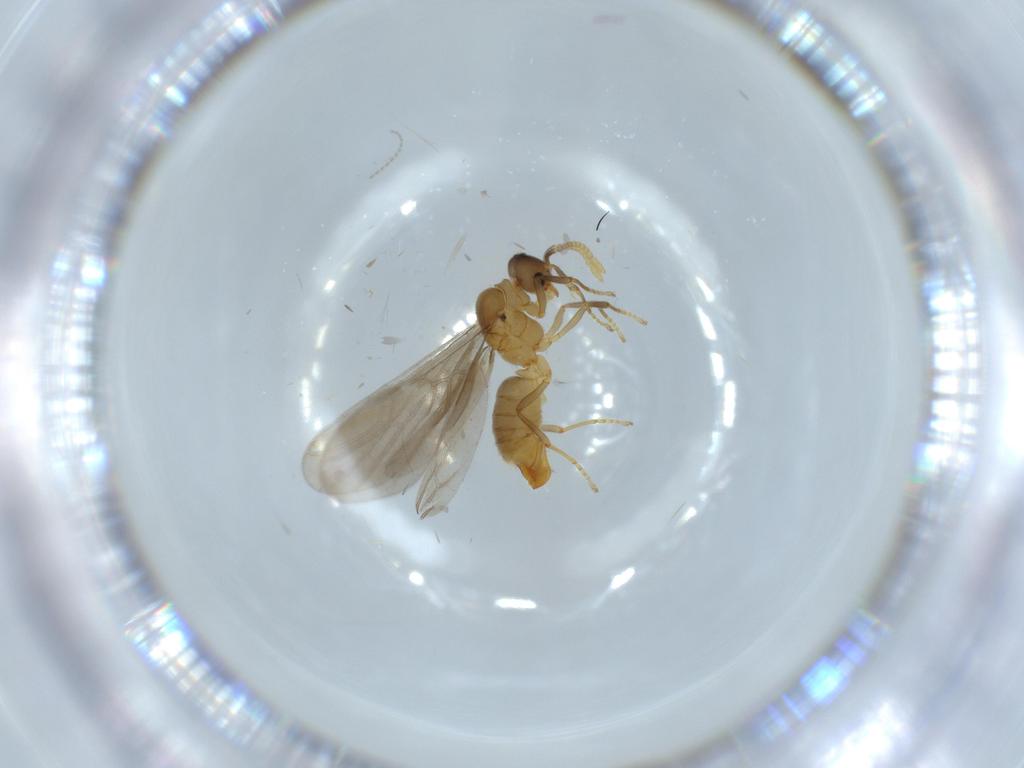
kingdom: Animalia
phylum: Arthropoda
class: Insecta
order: Hymenoptera
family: Formicidae
